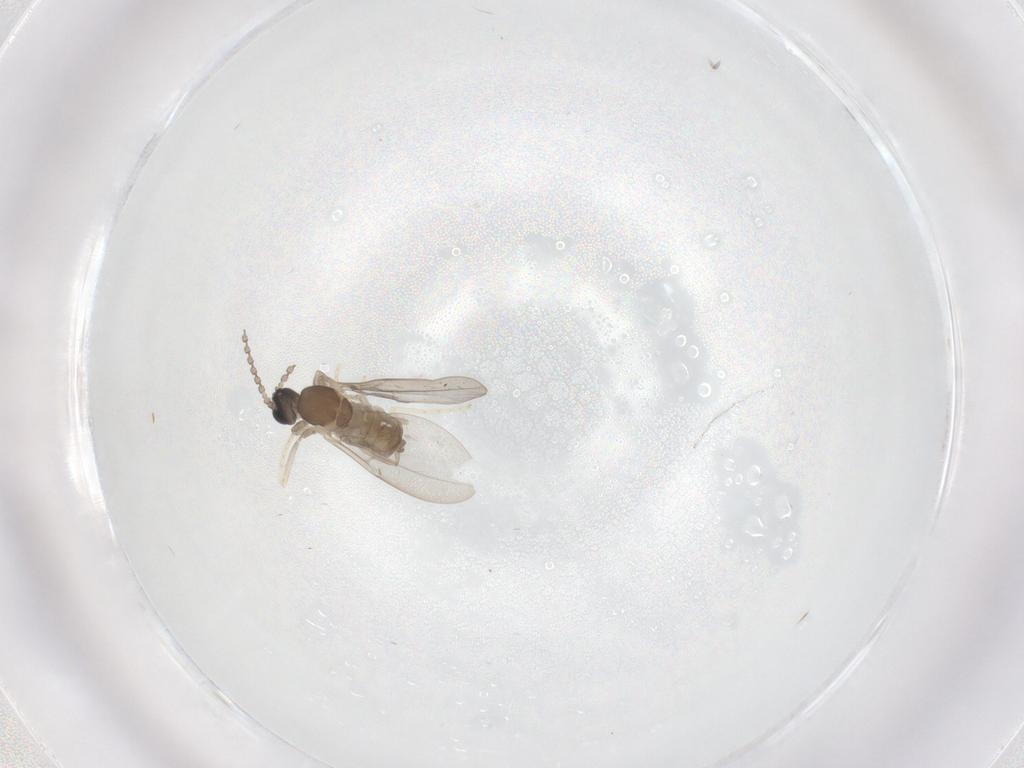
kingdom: Animalia
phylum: Arthropoda
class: Insecta
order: Diptera
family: Cecidomyiidae
